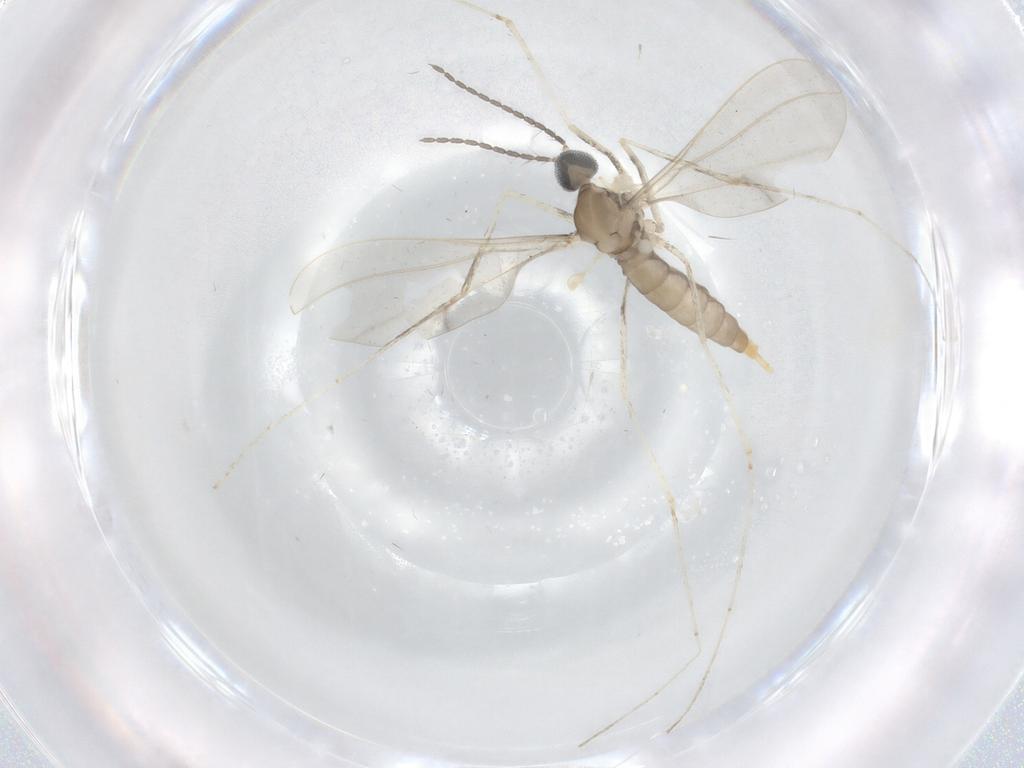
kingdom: Animalia
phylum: Arthropoda
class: Insecta
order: Diptera
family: Cecidomyiidae
